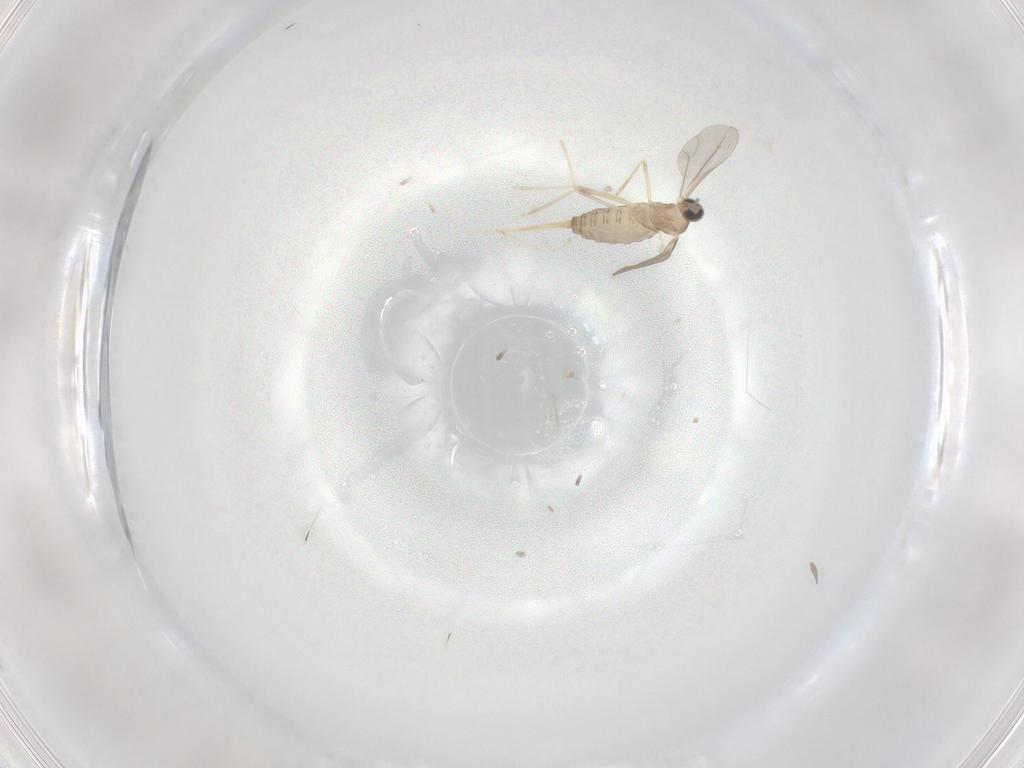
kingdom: Animalia
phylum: Arthropoda
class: Insecta
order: Diptera
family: Cecidomyiidae
